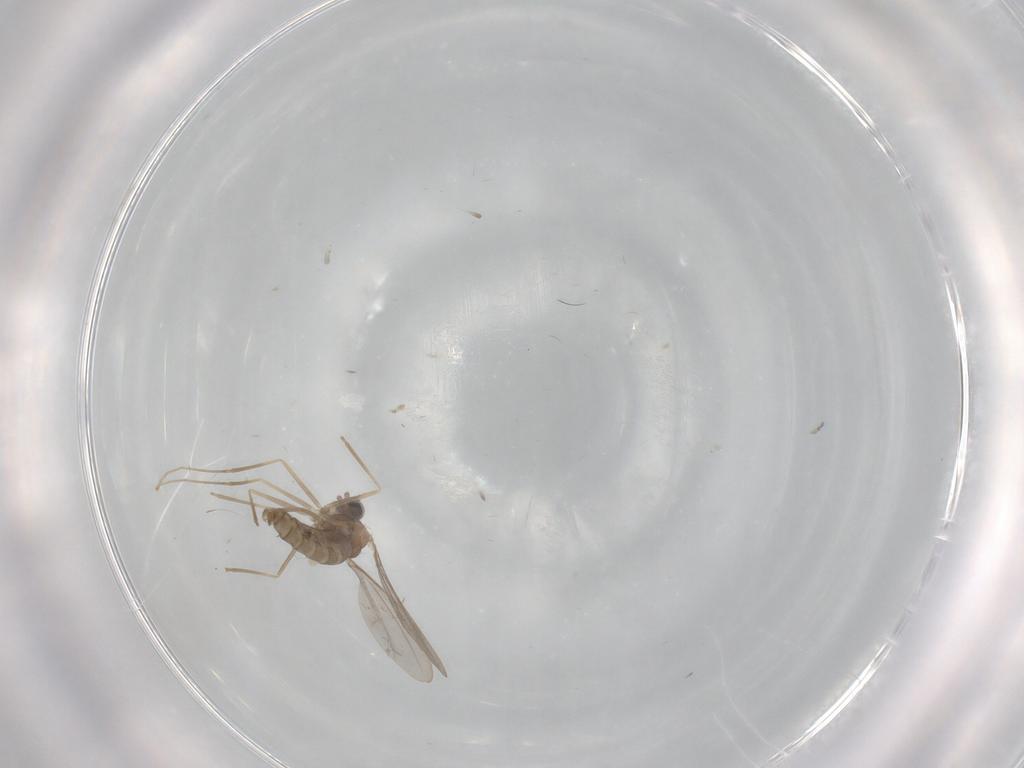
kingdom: Animalia
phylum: Arthropoda
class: Insecta
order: Diptera
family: Cecidomyiidae
